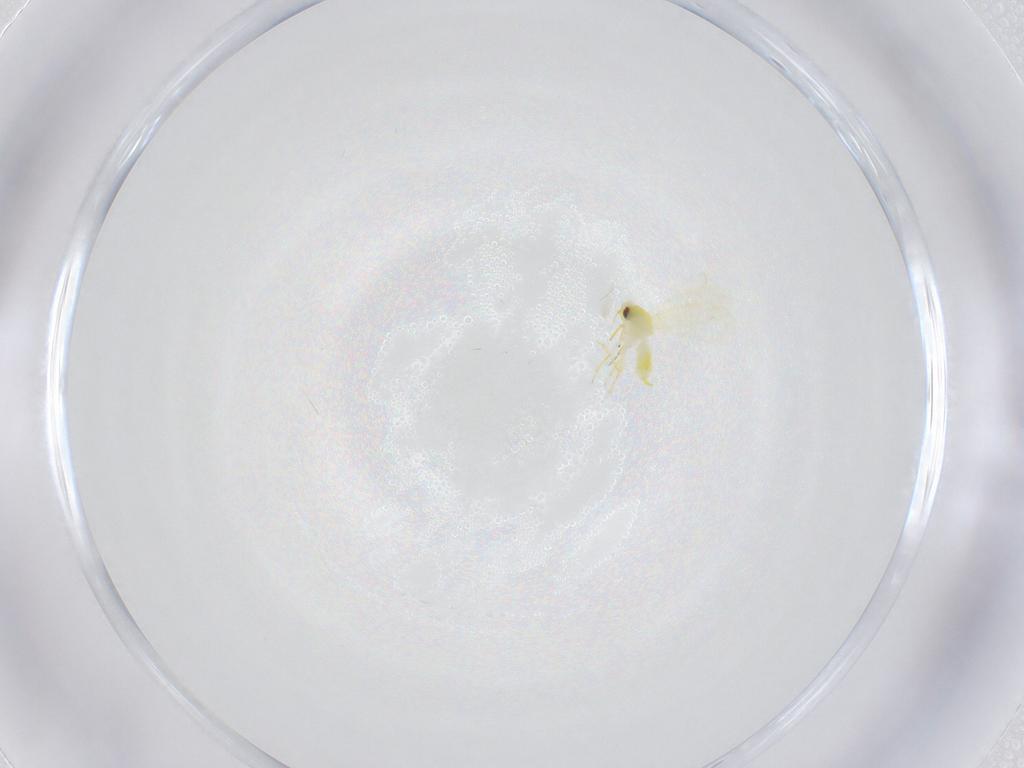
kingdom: Animalia
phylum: Arthropoda
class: Insecta
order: Hemiptera
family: Aleyrodidae
